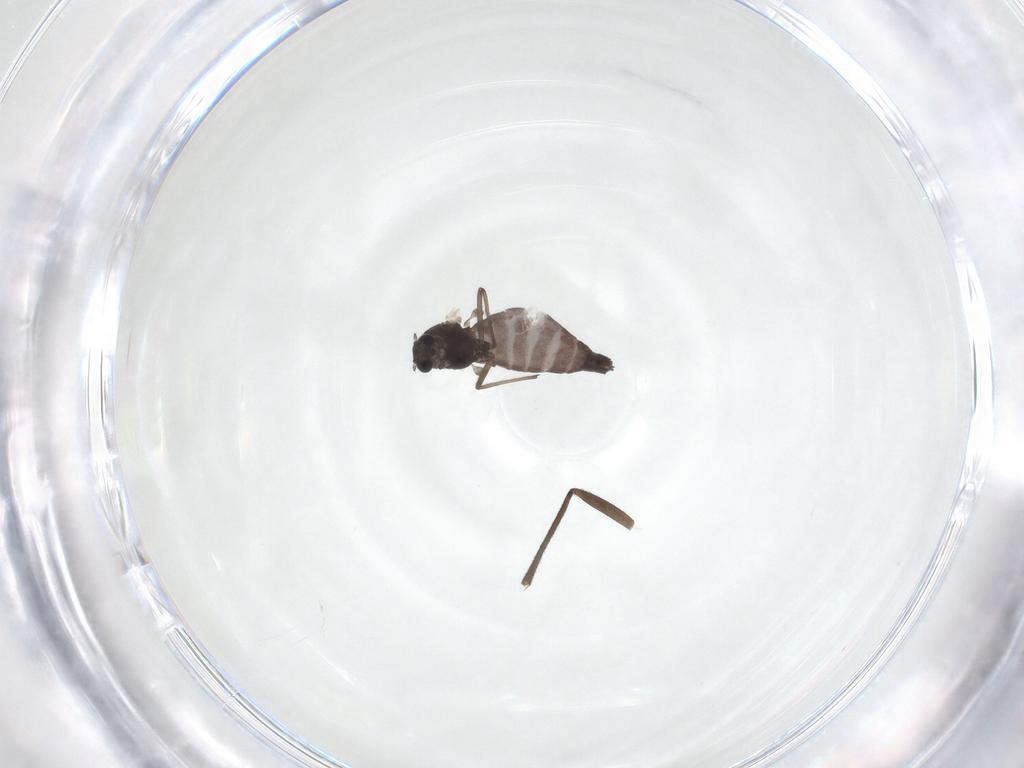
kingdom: Animalia
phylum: Arthropoda
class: Insecta
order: Diptera
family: Sciaridae
